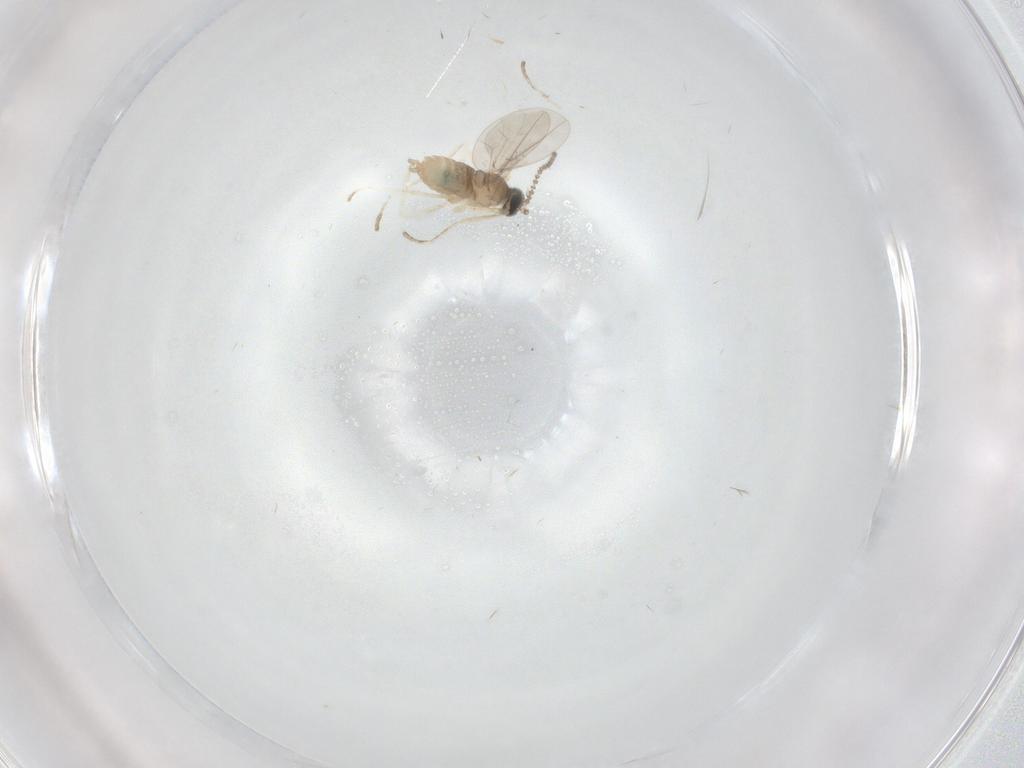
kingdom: Animalia
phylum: Arthropoda
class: Insecta
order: Diptera
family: Cecidomyiidae
